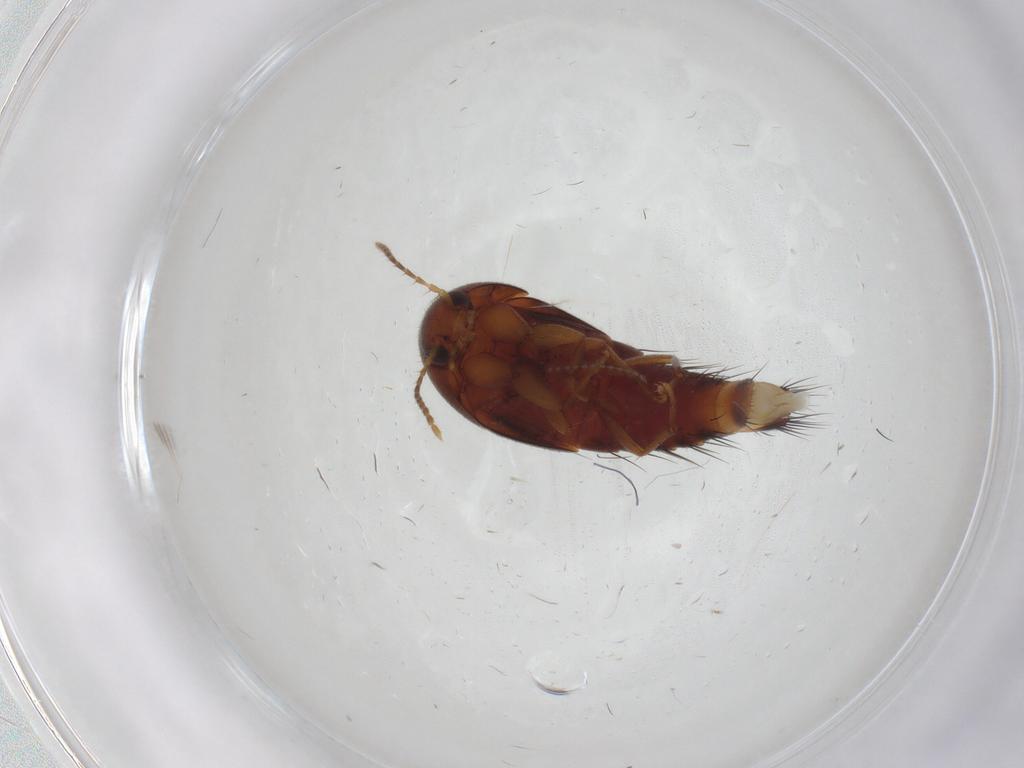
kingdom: Animalia
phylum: Arthropoda
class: Insecta
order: Coleoptera
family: Staphylinidae
